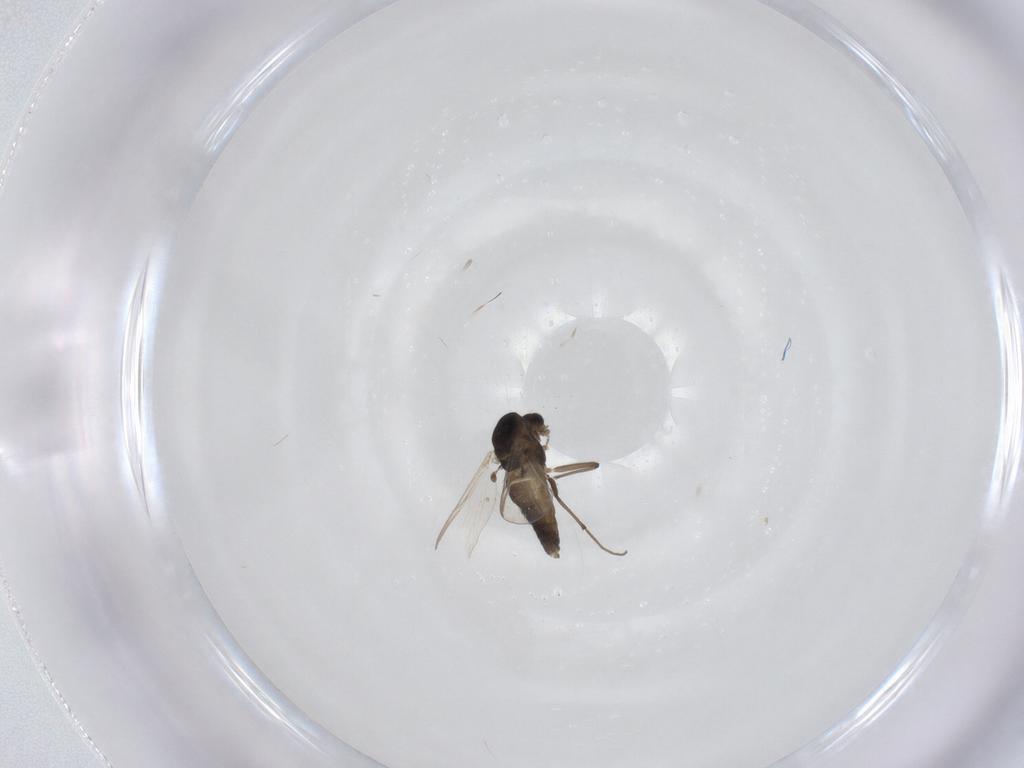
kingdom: Animalia
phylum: Arthropoda
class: Insecta
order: Diptera
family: Chironomidae
